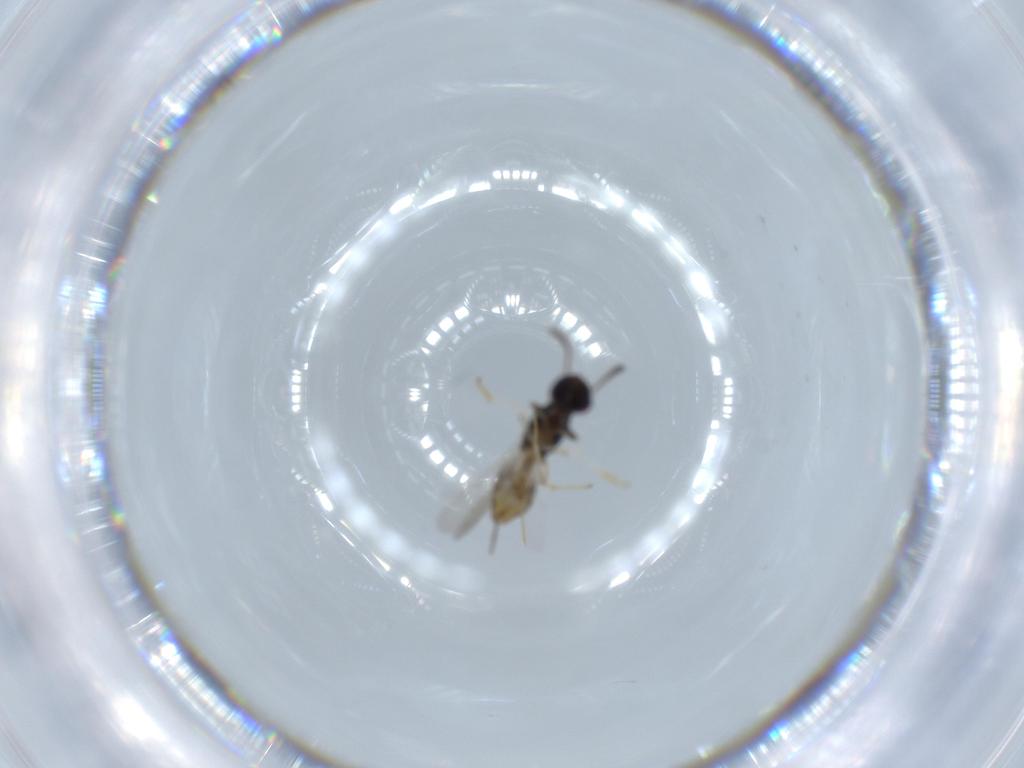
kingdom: Animalia
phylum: Arthropoda
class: Insecta
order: Hymenoptera
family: Eupelmidae
